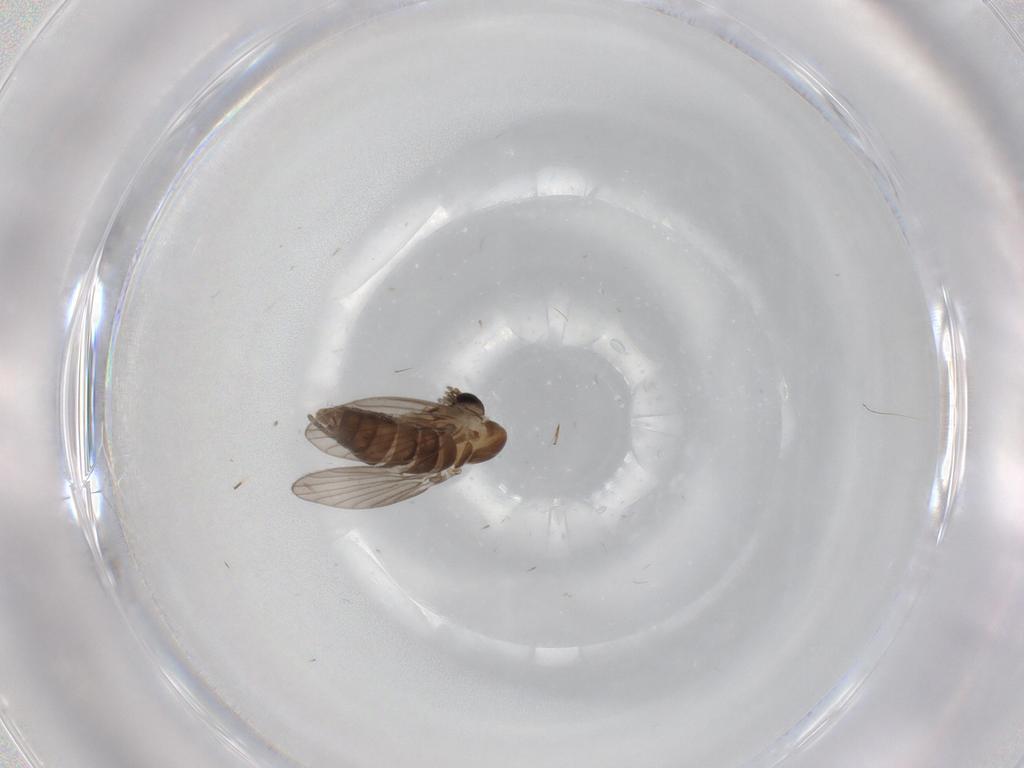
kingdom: Animalia
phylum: Arthropoda
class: Insecta
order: Diptera
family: Psychodidae
